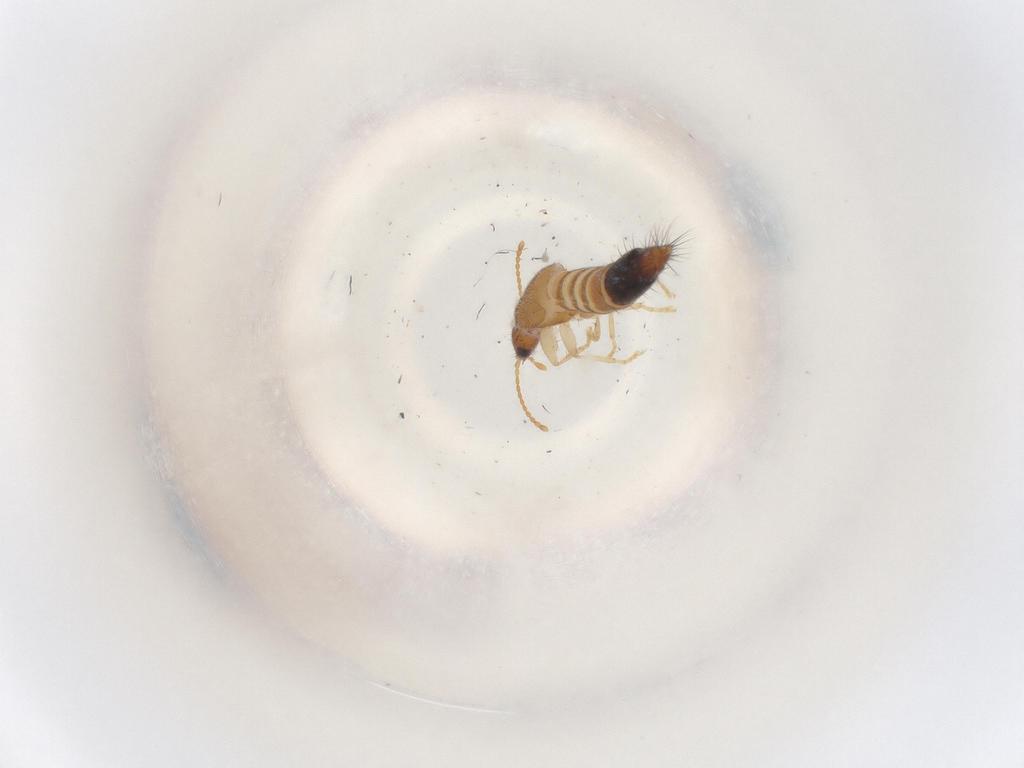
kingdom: Animalia
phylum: Arthropoda
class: Insecta
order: Coleoptera
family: Staphylinidae
